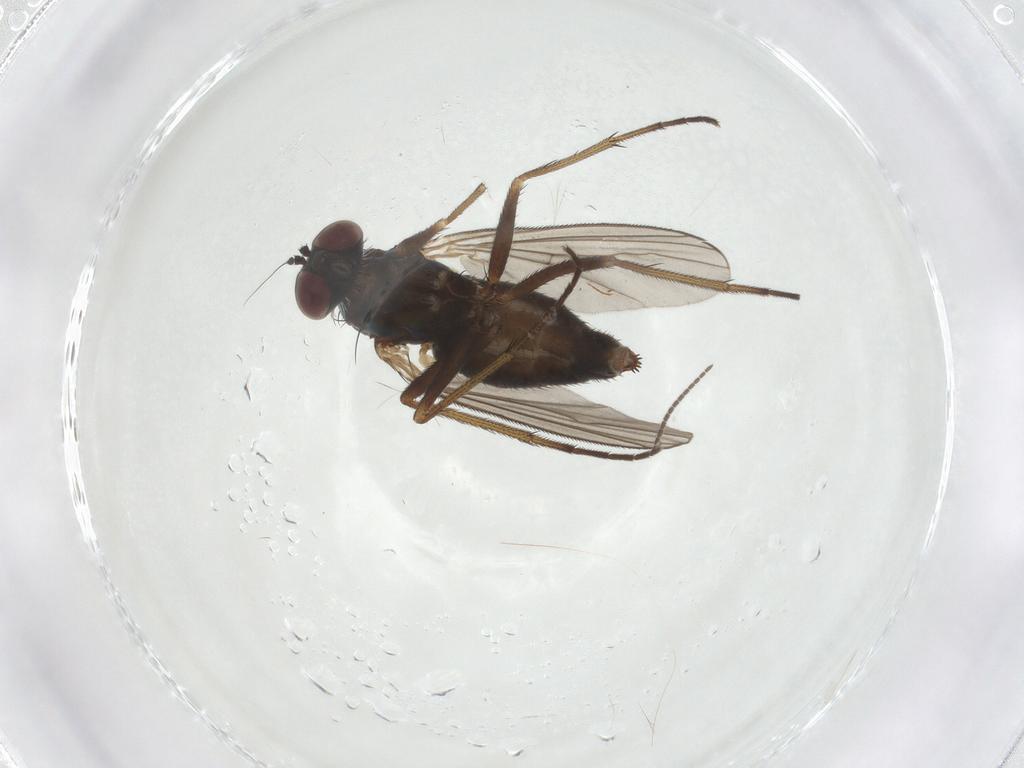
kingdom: Animalia
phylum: Arthropoda
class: Insecta
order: Diptera
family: Dolichopodidae
